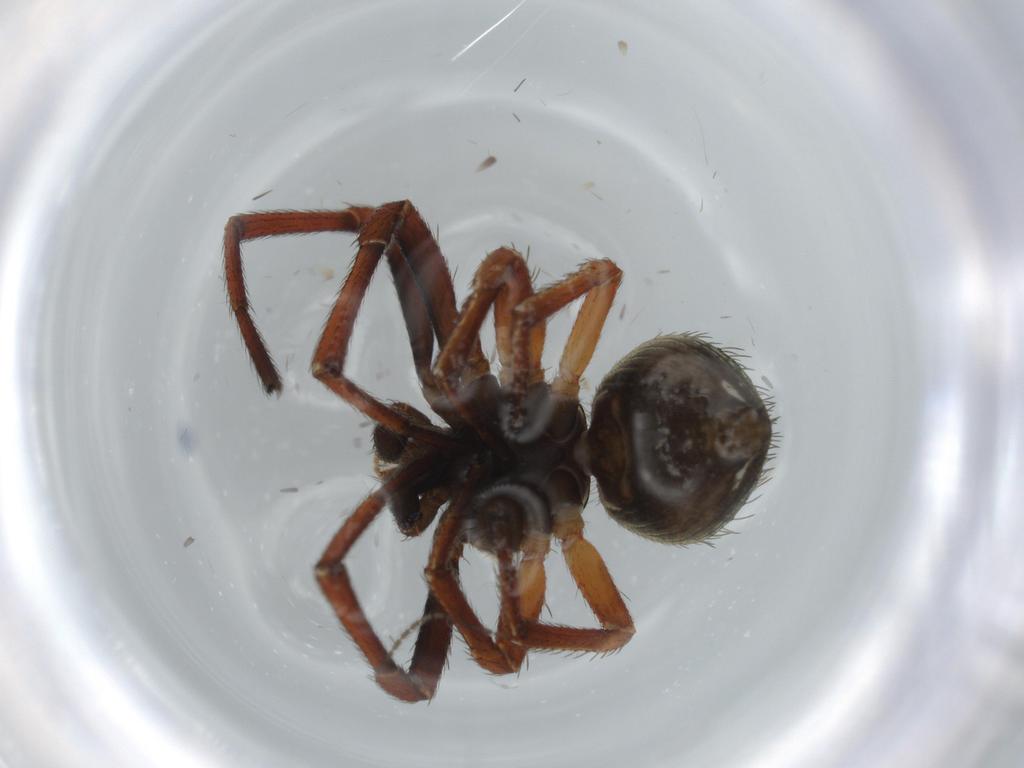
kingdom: Animalia
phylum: Arthropoda
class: Arachnida
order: Araneae
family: Thomisidae
